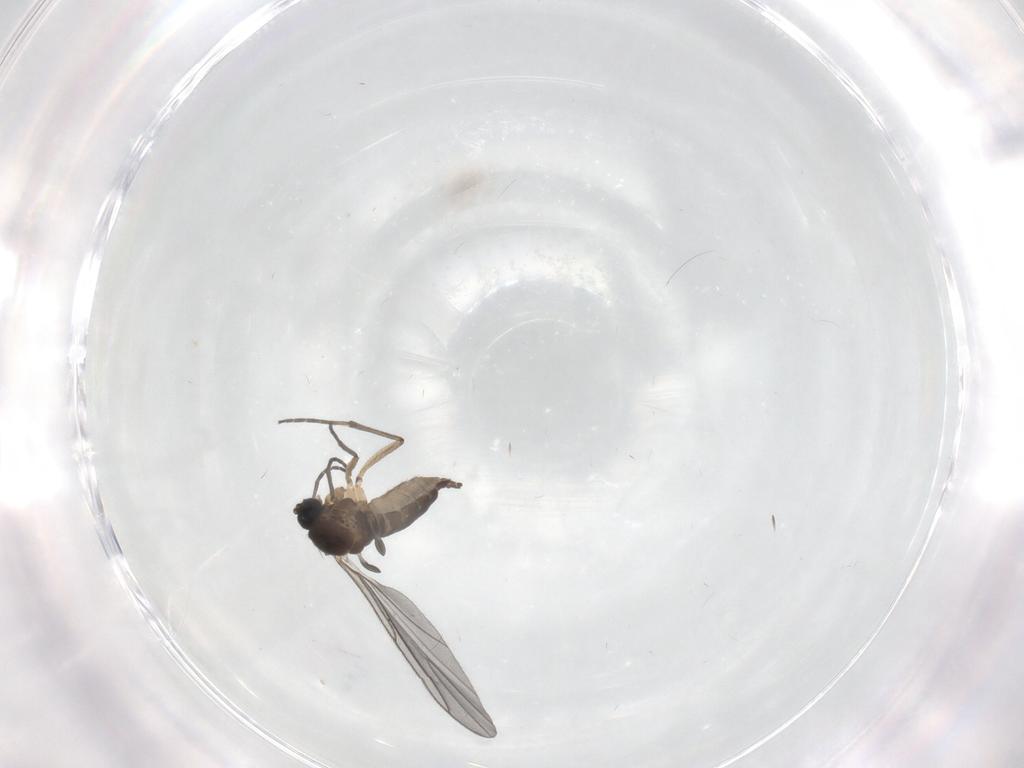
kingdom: Animalia
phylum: Arthropoda
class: Insecta
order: Diptera
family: Sciaridae
